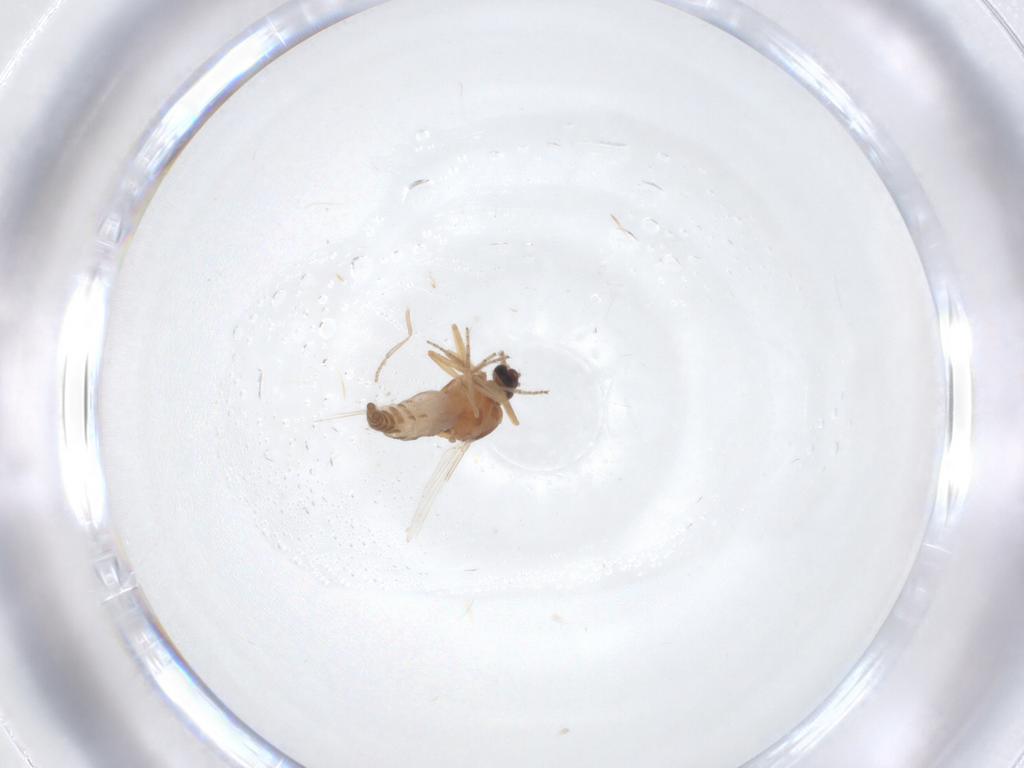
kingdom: Animalia
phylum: Arthropoda
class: Insecta
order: Diptera
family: Ceratopogonidae
